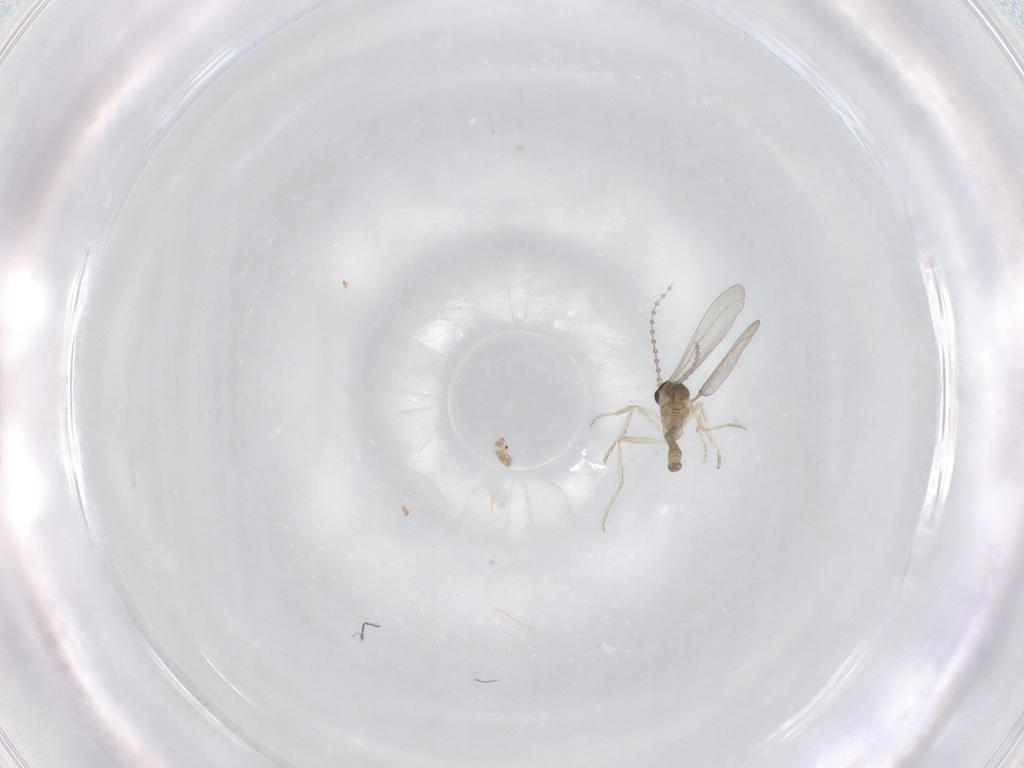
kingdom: Animalia
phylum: Arthropoda
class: Insecta
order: Diptera
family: Cecidomyiidae
